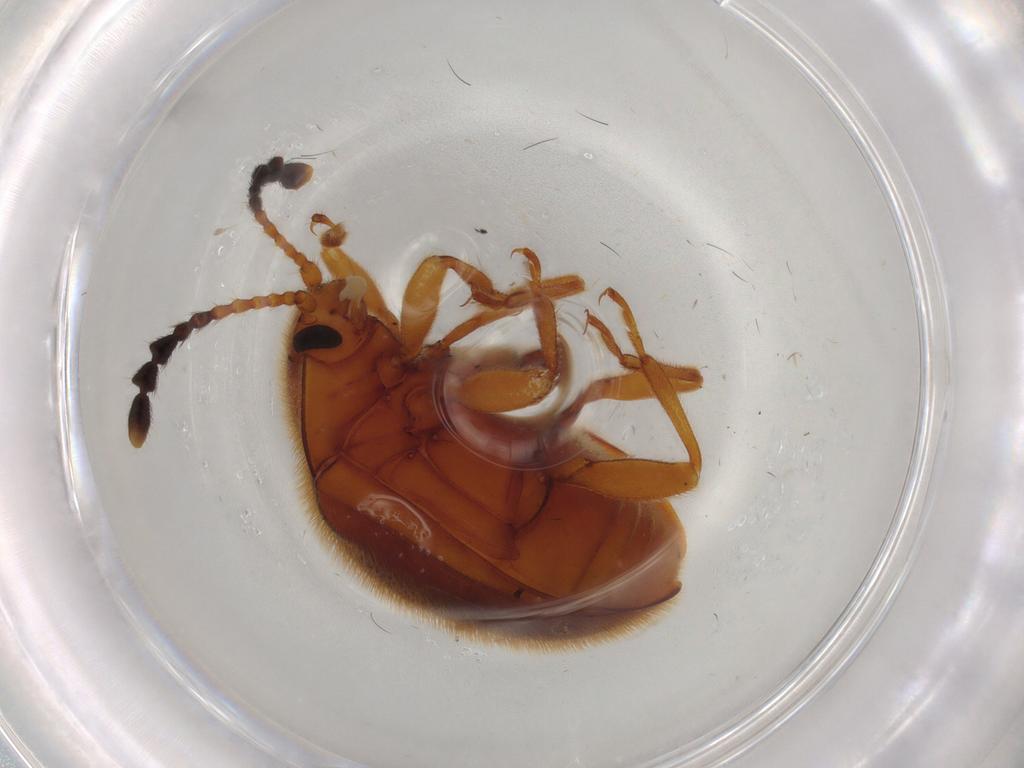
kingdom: Animalia
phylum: Arthropoda
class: Insecta
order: Coleoptera
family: Endomychidae
